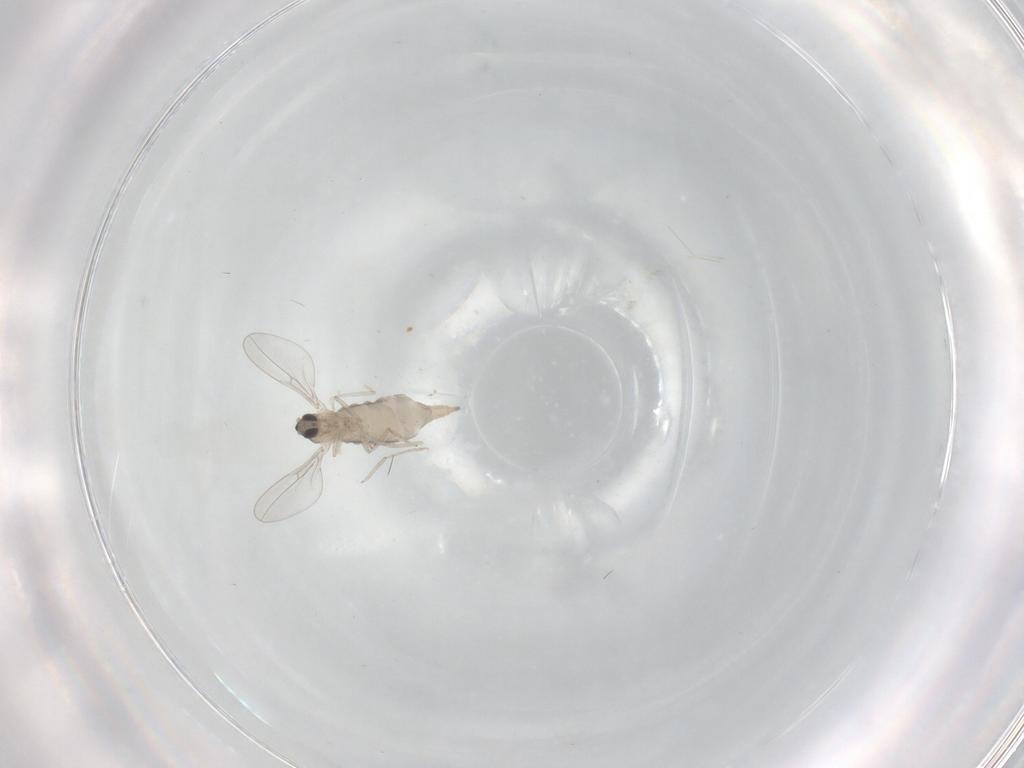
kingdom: Animalia
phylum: Arthropoda
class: Insecta
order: Diptera
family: Cecidomyiidae
